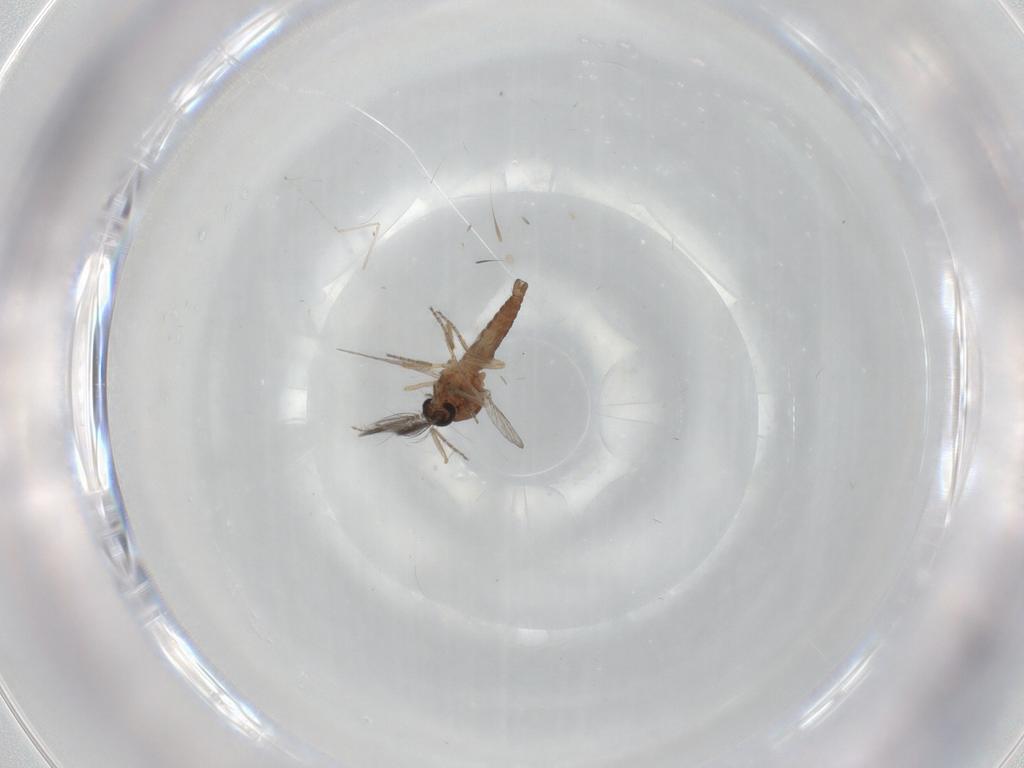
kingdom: Animalia
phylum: Arthropoda
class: Insecta
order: Diptera
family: Ceratopogonidae
